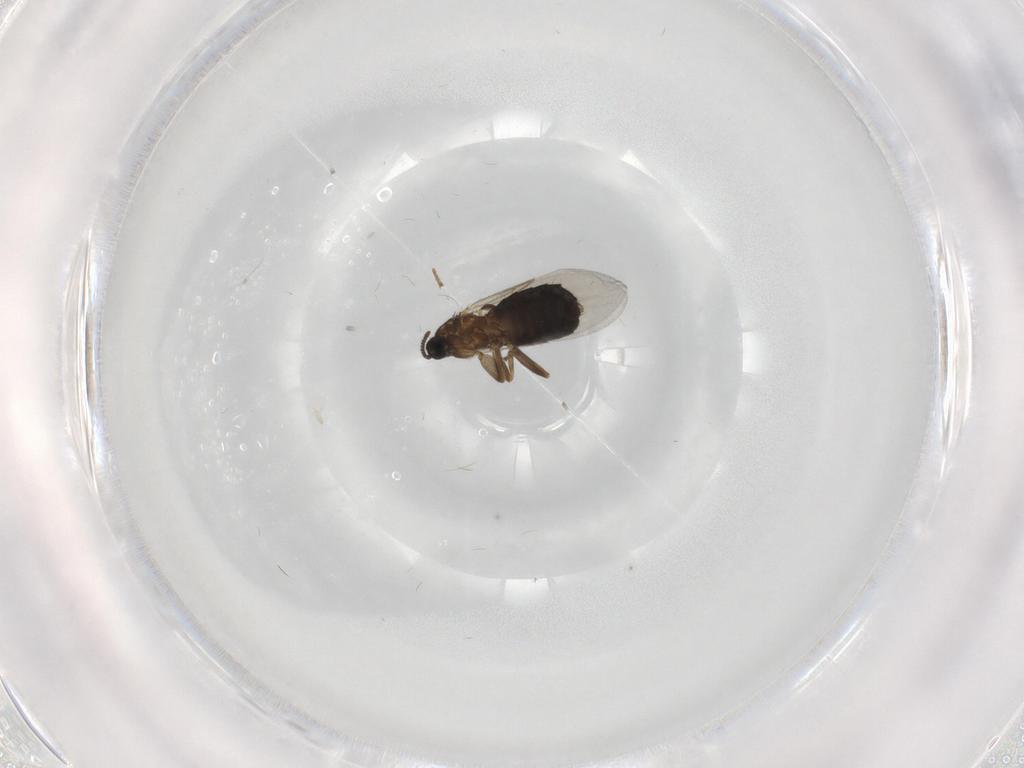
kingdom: Animalia
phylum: Arthropoda
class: Insecta
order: Diptera
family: Scatopsidae
